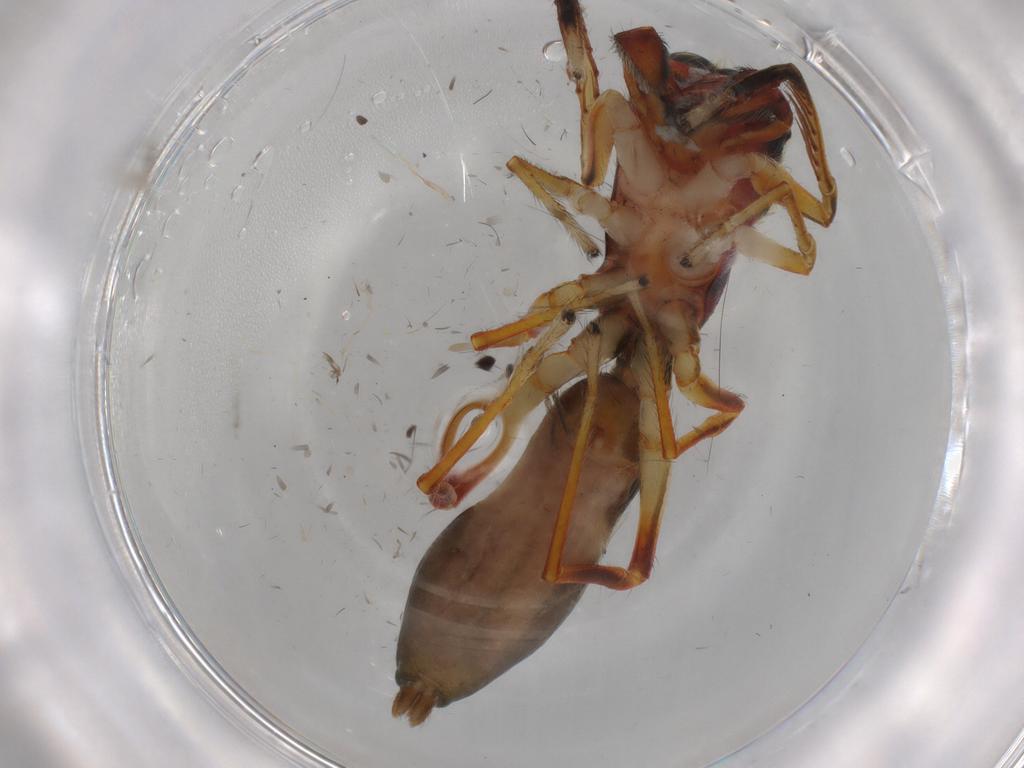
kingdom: Animalia
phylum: Arthropoda
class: Arachnida
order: Araneae
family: Salticidae
